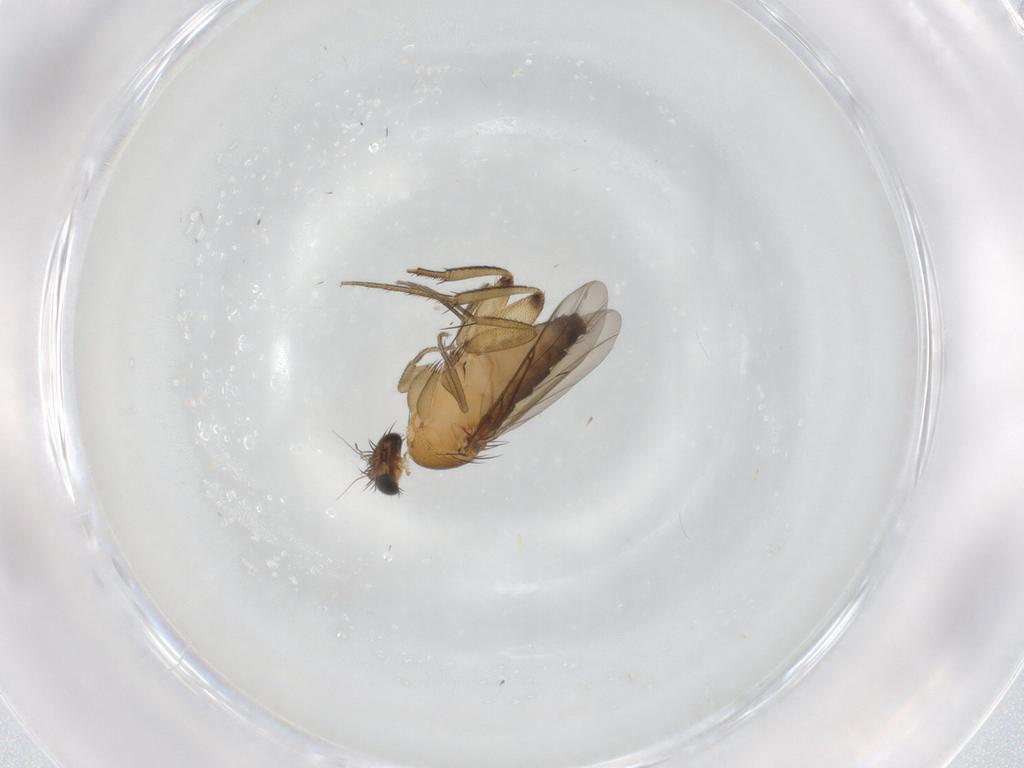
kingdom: Animalia
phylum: Arthropoda
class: Insecta
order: Diptera
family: Phoridae
